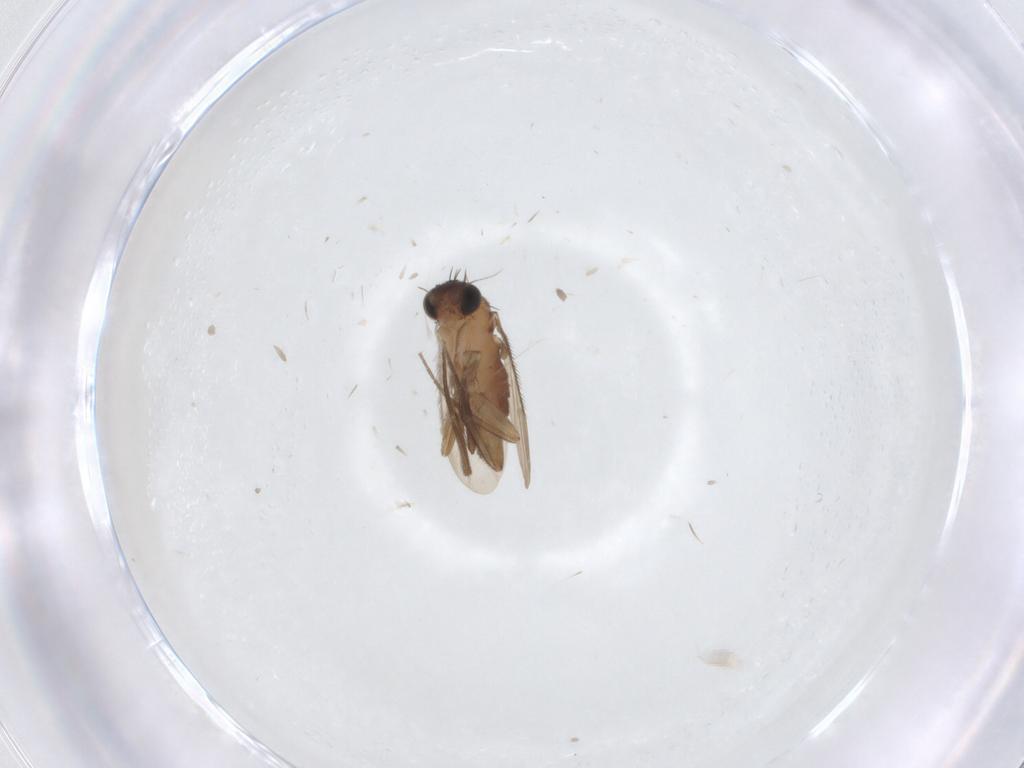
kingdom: Animalia
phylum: Arthropoda
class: Insecta
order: Diptera
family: Phoridae
